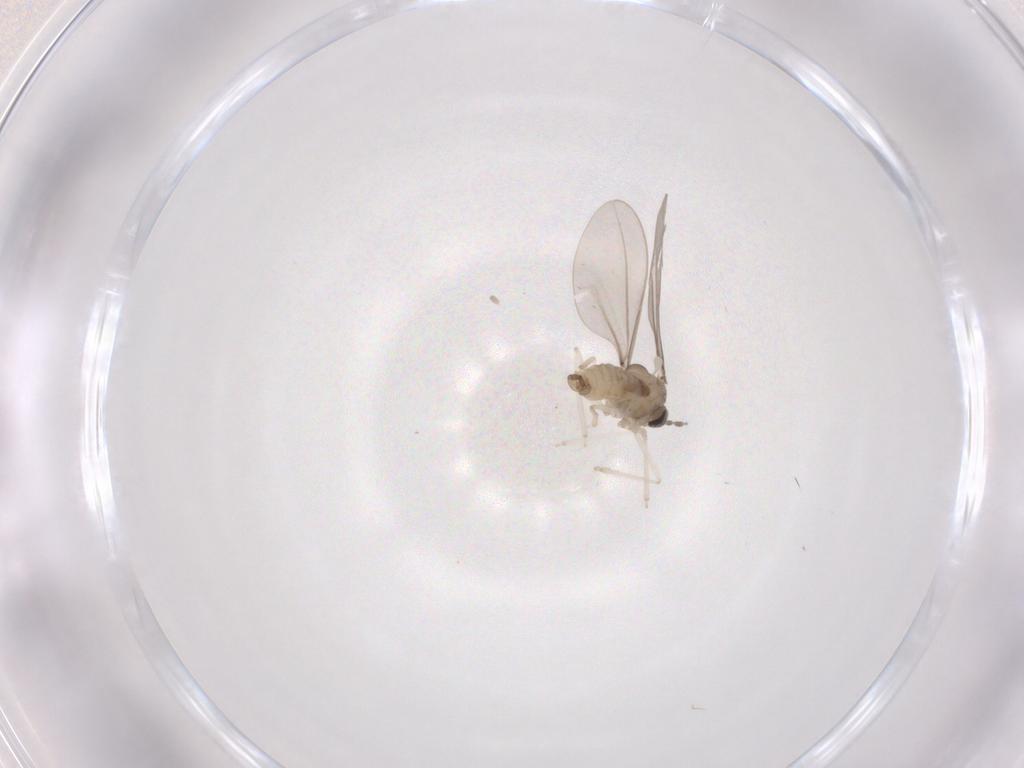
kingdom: Animalia
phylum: Arthropoda
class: Insecta
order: Diptera
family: Cecidomyiidae
